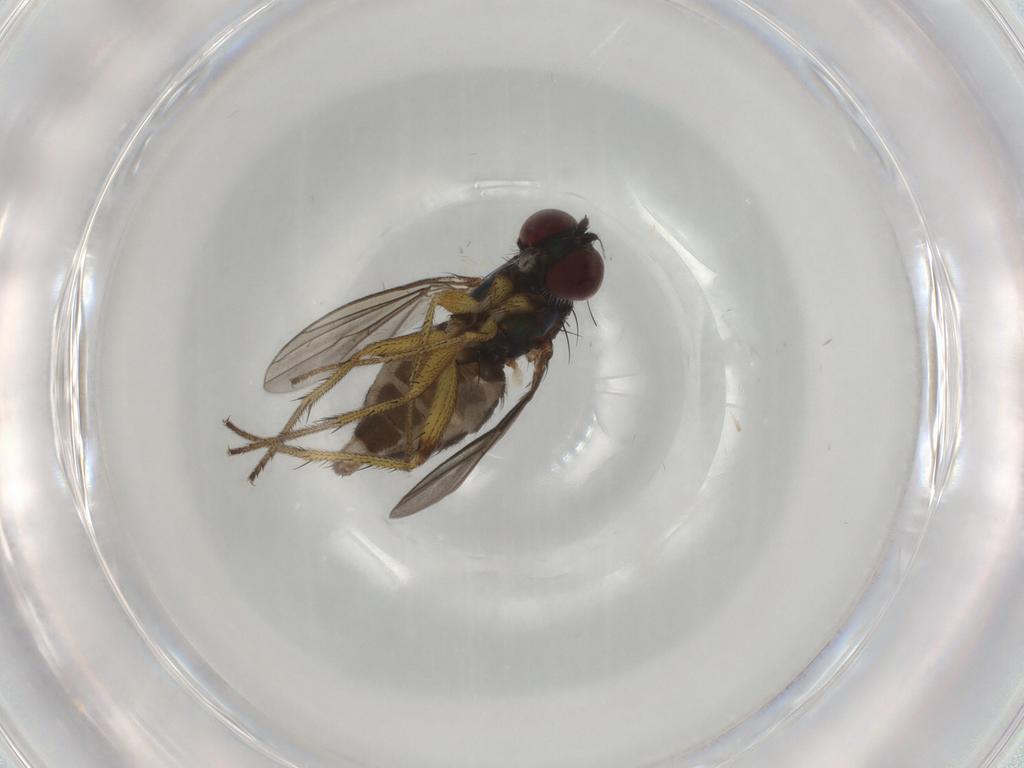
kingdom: Animalia
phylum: Arthropoda
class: Insecta
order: Diptera
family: Dolichopodidae
